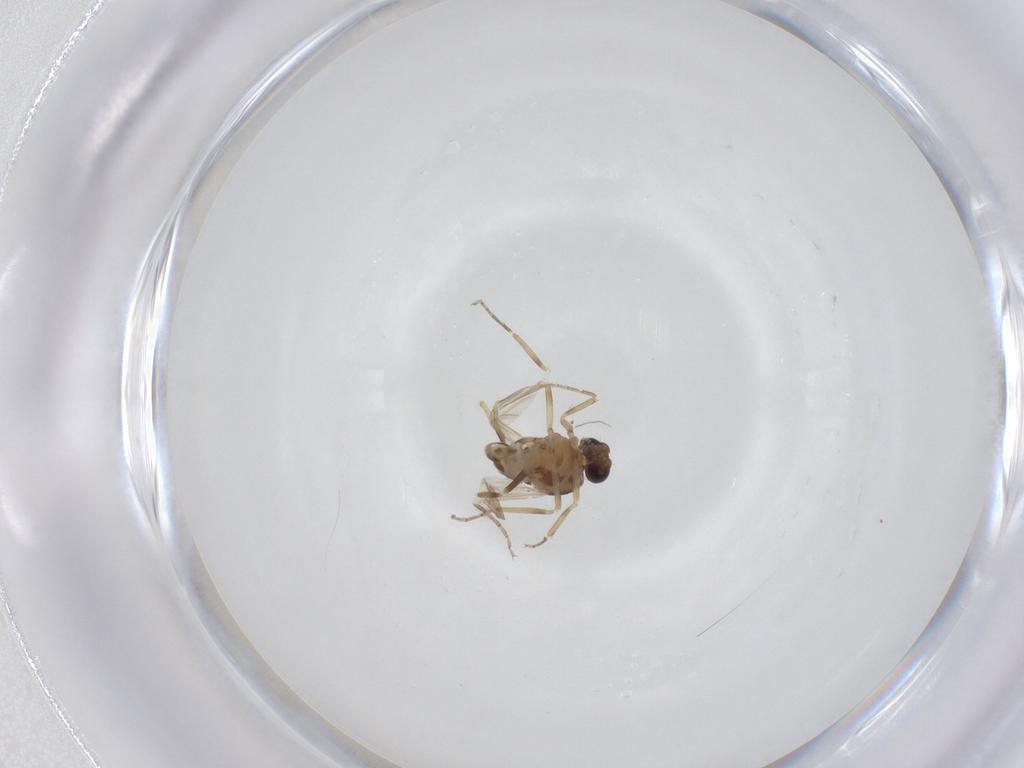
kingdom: Animalia
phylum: Arthropoda
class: Insecta
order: Diptera
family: Ceratopogonidae
